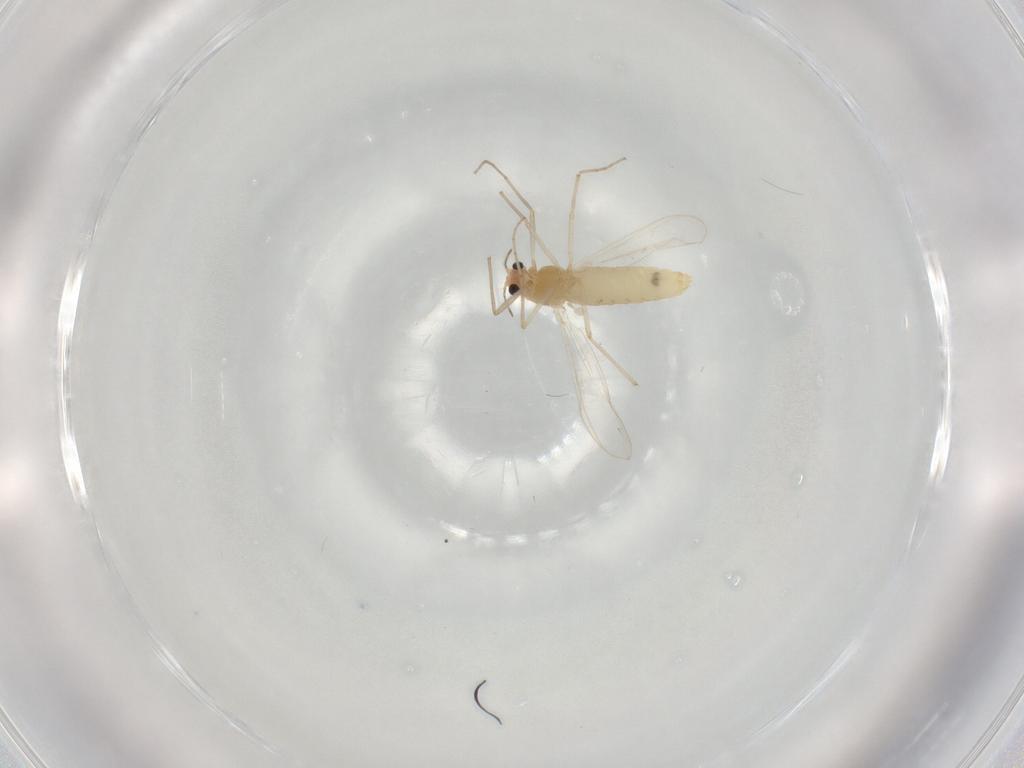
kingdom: Animalia
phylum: Arthropoda
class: Insecta
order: Diptera
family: Chironomidae
